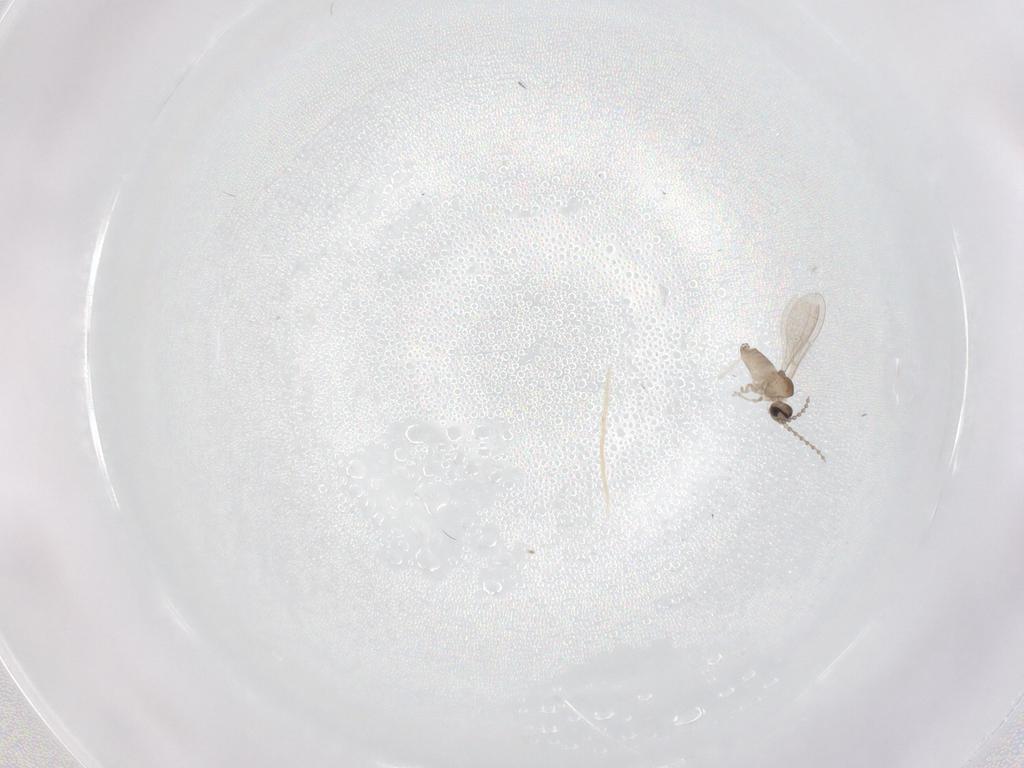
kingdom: Animalia
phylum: Arthropoda
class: Insecta
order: Diptera
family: Cecidomyiidae
